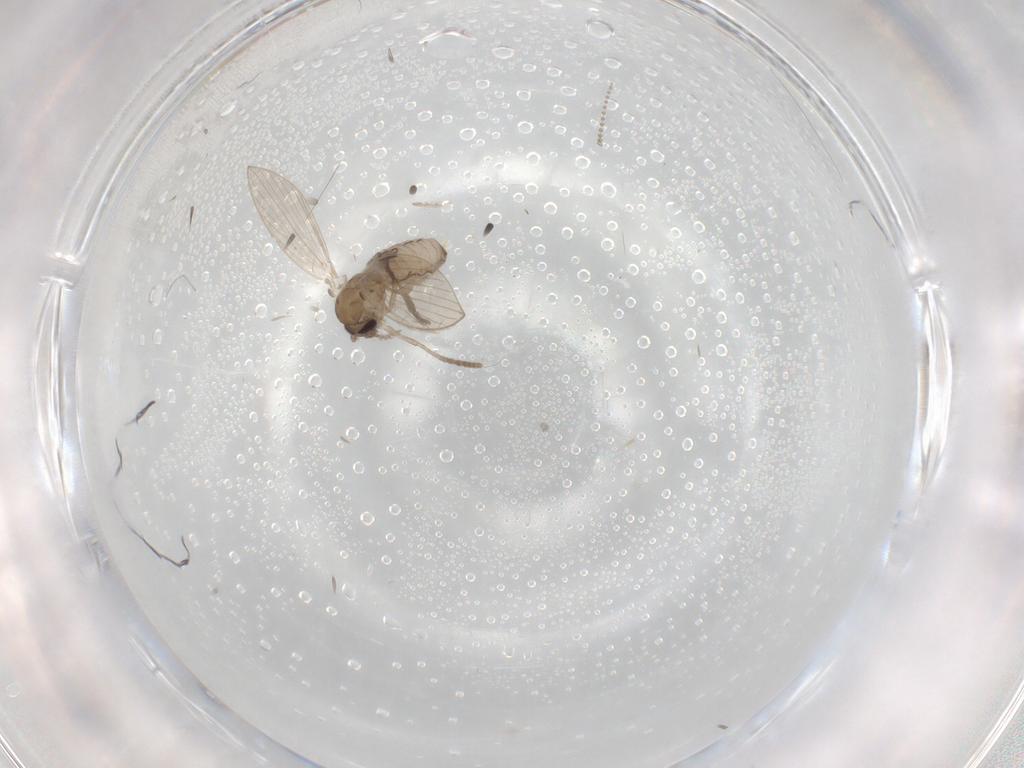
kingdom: Animalia
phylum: Arthropoda
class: Insecta
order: Diptera
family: Psychodidae
